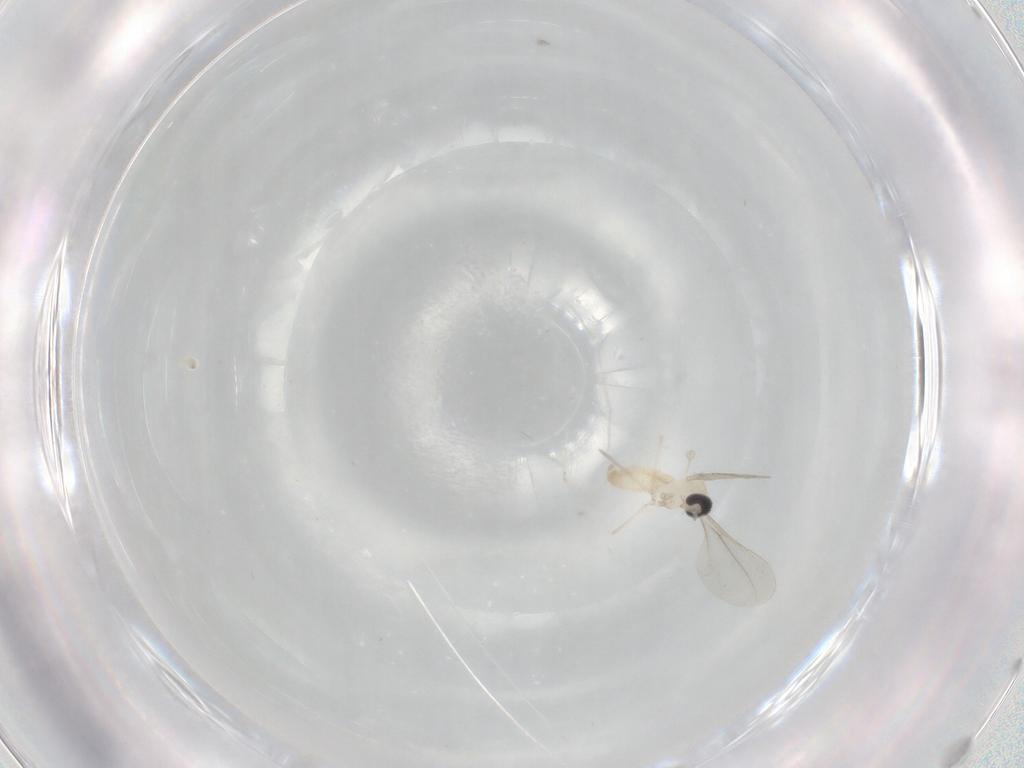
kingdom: Animalia
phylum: Arthropoda
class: Insecta
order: Diptera
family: Cecidomyiidae
